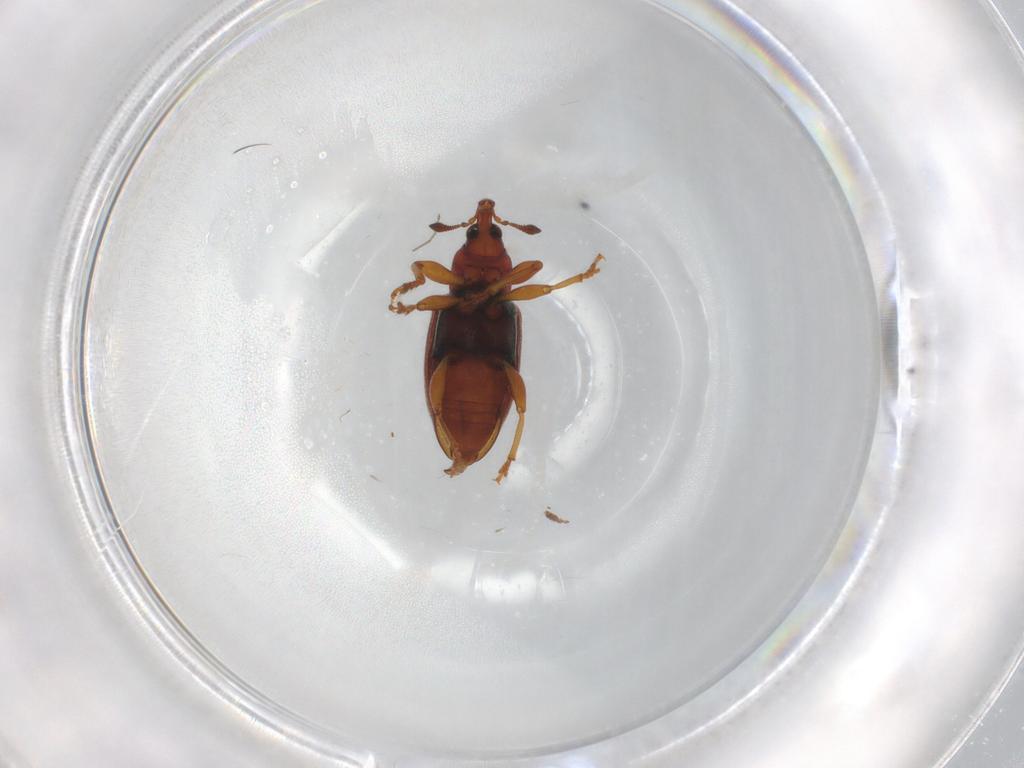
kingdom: Animalia
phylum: Arthropoda
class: Insecta
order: Coleoptera
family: Curculionidae
